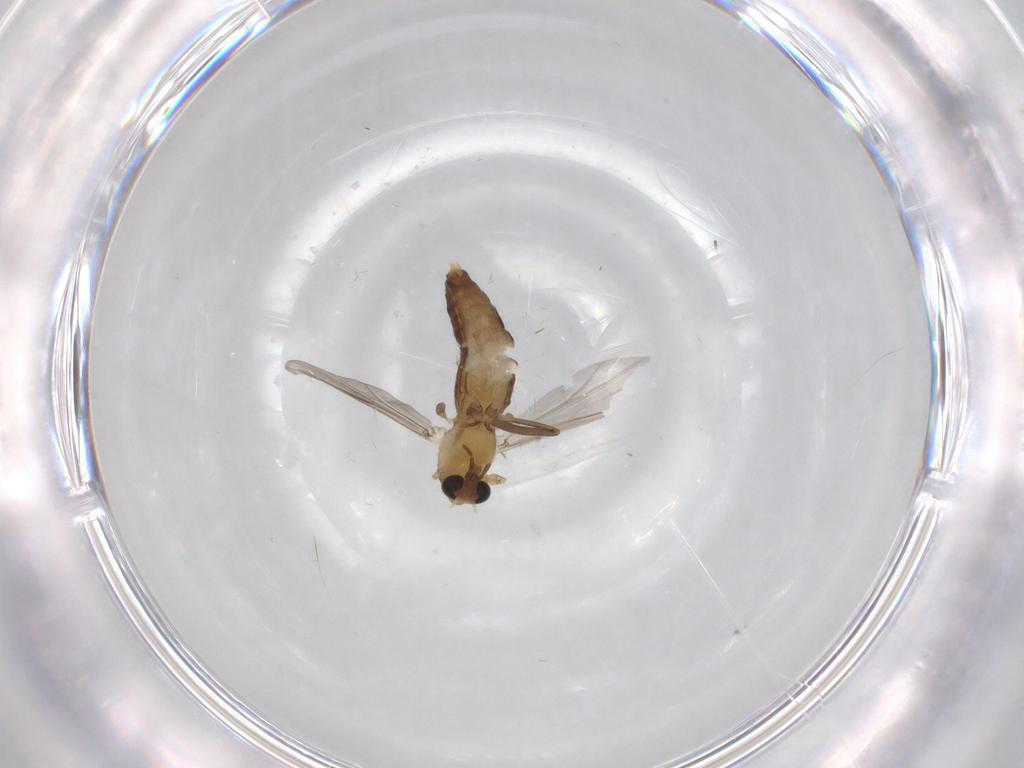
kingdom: Animalia
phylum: Arthropoda
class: Insecta
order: Diptera
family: Chironomidae
